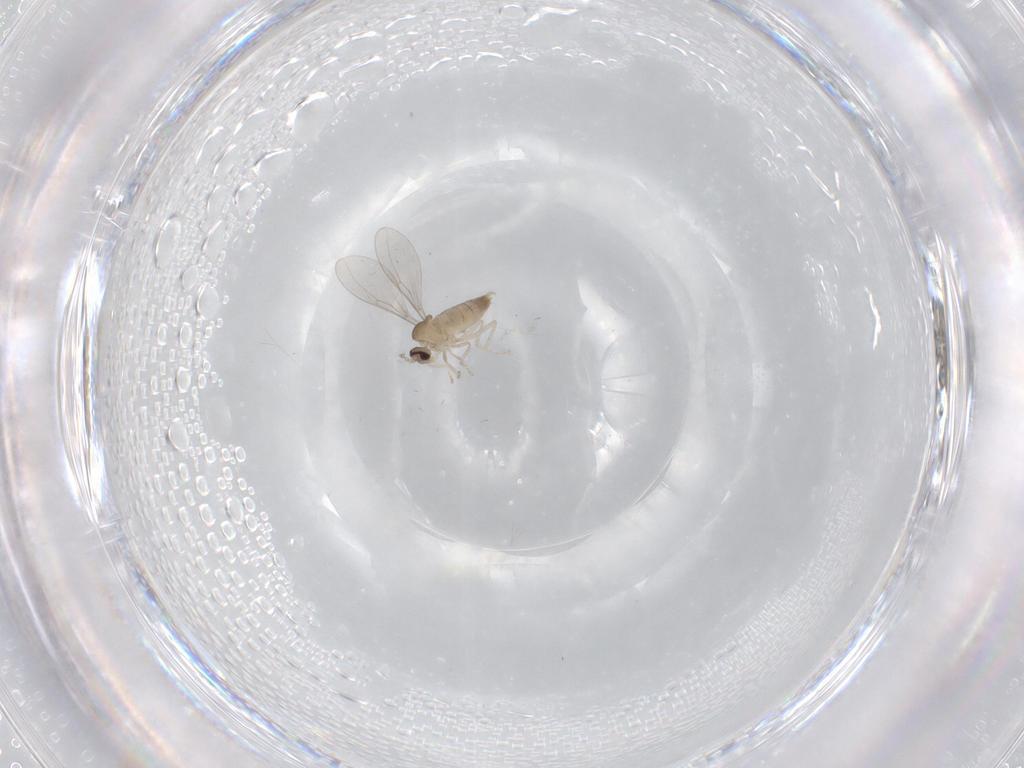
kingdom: Animalia
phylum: Arthropoda
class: Insecta
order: Diptera
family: Cecidomyiidae
